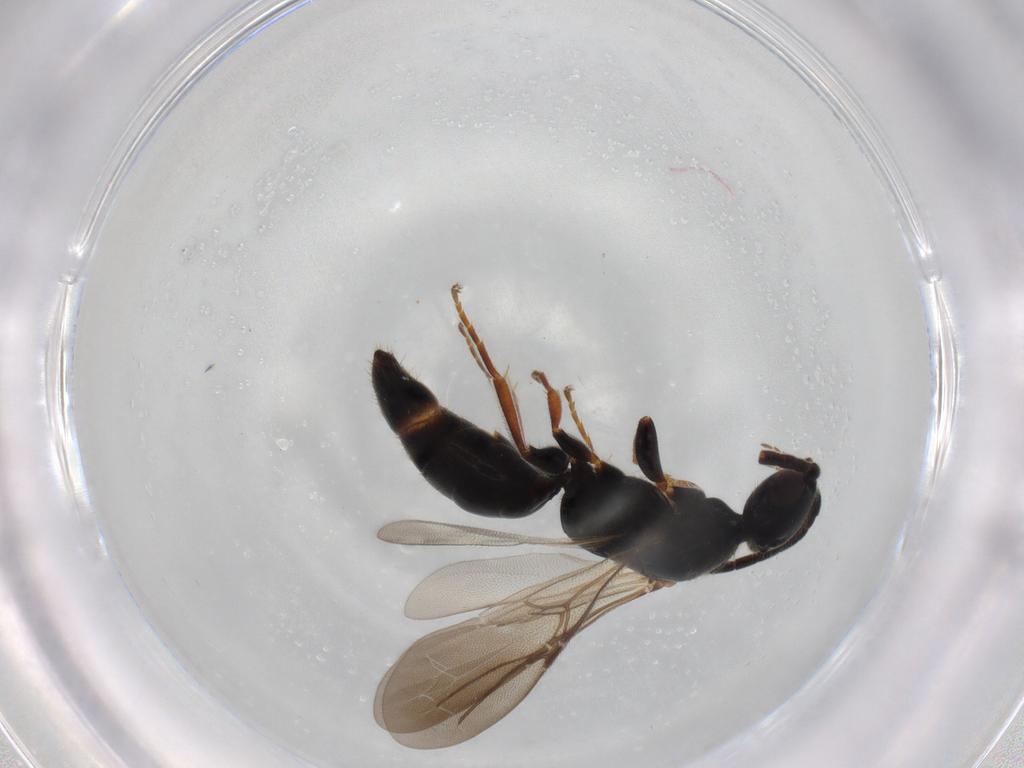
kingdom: Animalia
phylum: Arthropoda
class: Insecta
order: Hymenoptera
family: Bethylidae
